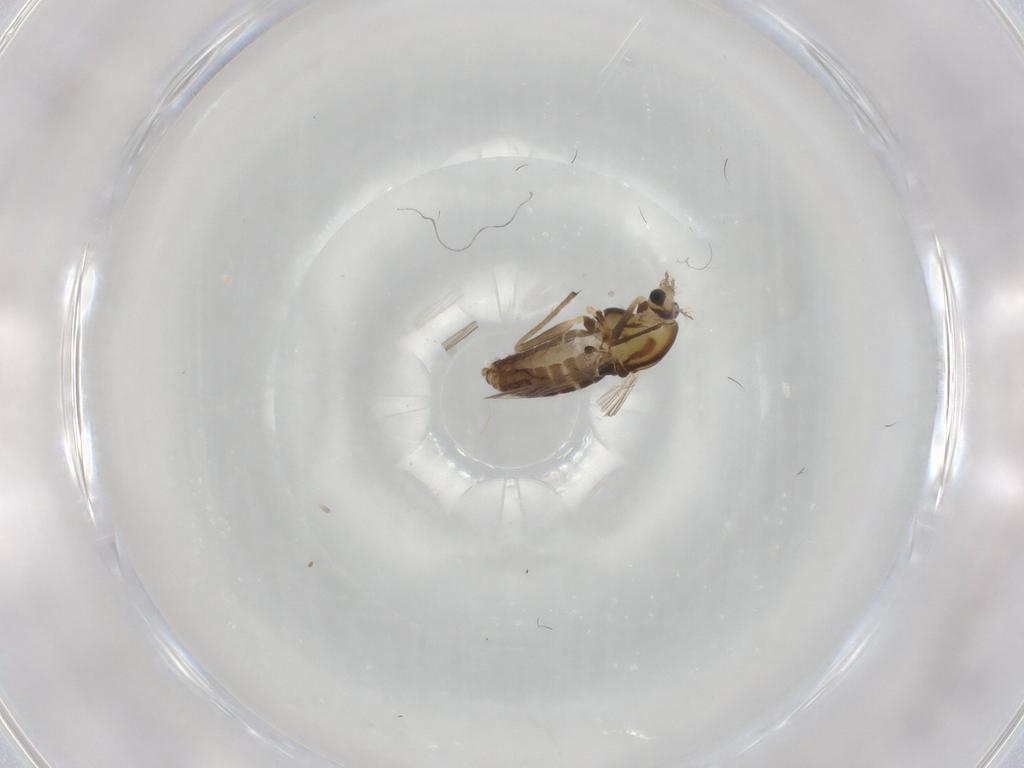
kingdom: Animalia
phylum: Arthropoda
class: Insecta
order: Diptera
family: Chironomidae
